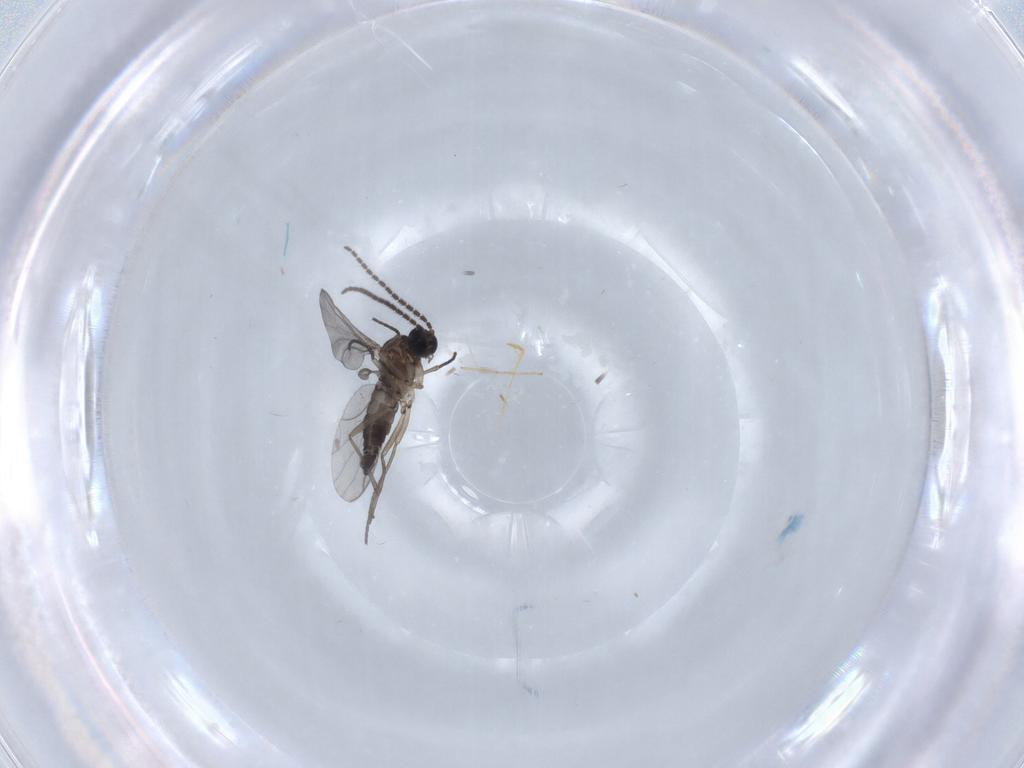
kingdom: Animalia
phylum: Arthropoda
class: Insecta
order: Diptera
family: Sciaridae
